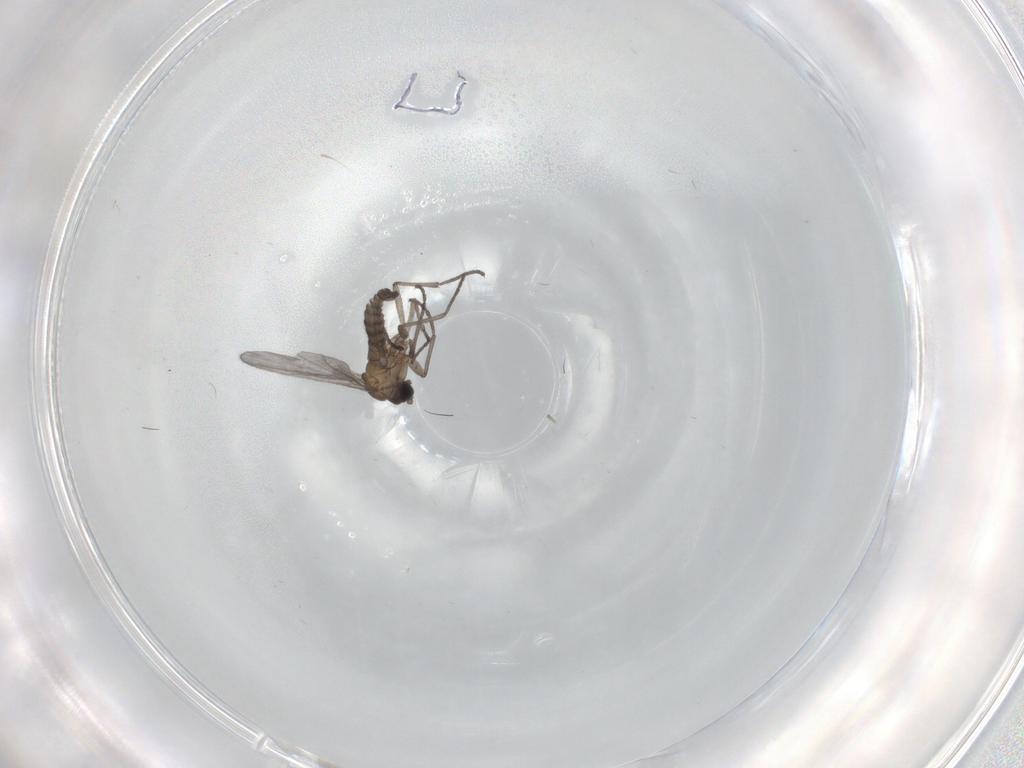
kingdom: Animalia
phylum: Arthropoda
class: Insecta
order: Diptera
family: Sciaridae
